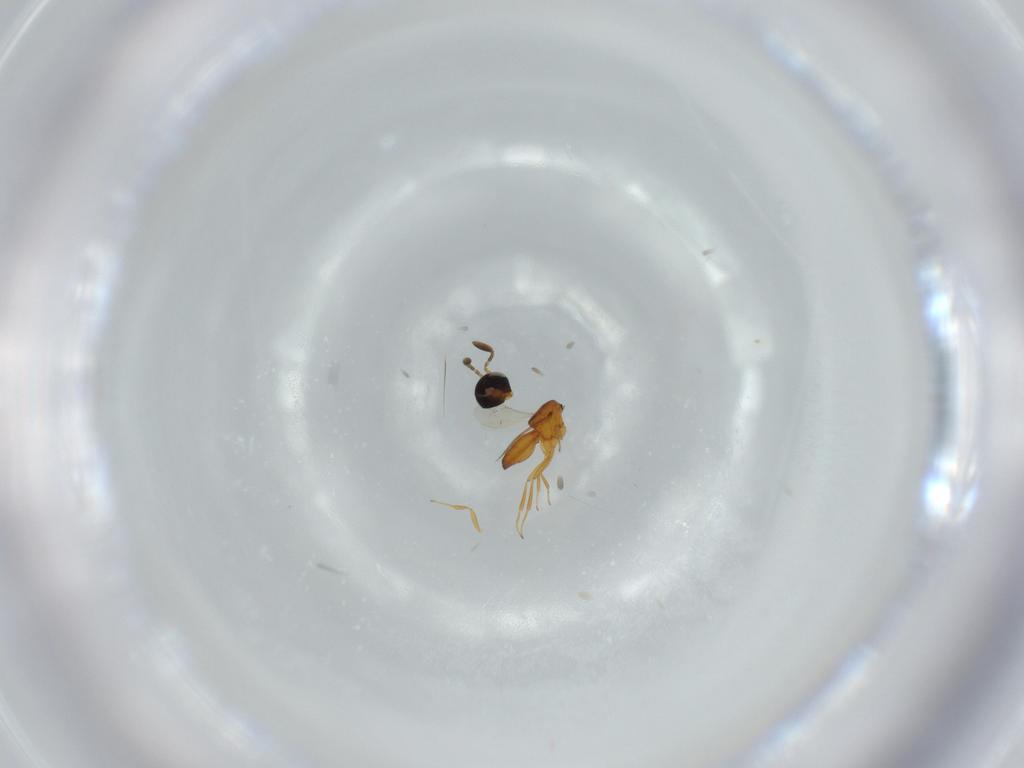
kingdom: Animalia
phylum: Arthropoda
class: Insecta
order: Hymenoptera
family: Scelionidae
